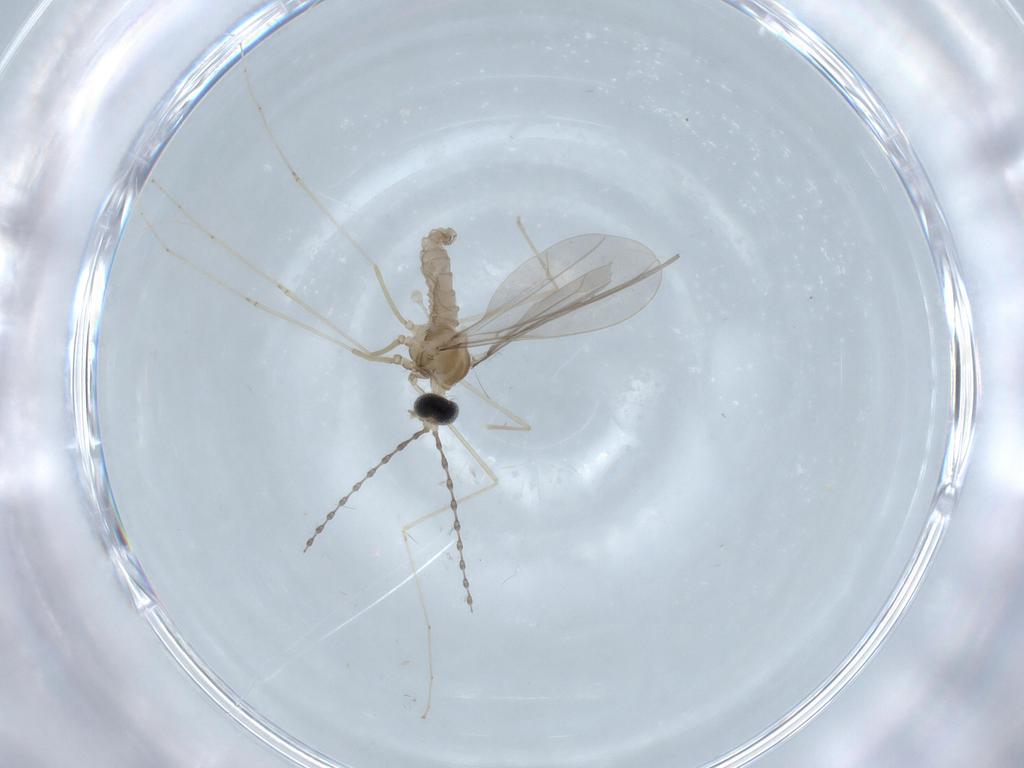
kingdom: Animalia
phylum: Arthropoda
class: Insecta
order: Diptera
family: Cecidomyiidae
